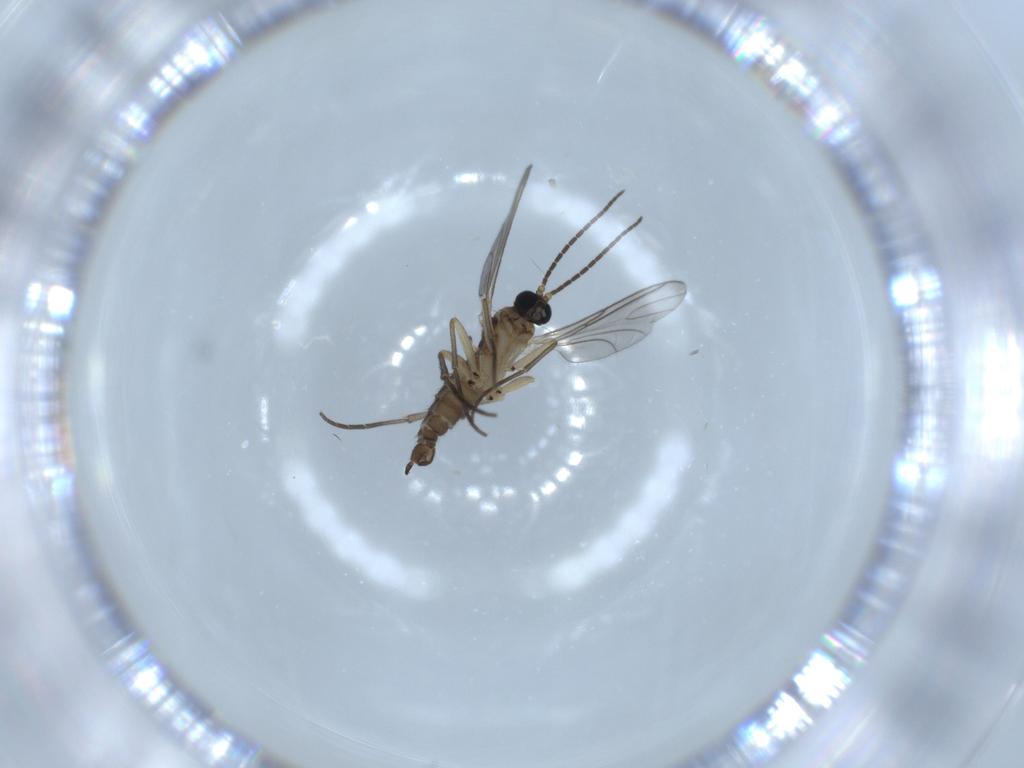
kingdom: Animalia
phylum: Arthropoda
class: Insecta
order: Diptera
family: Sciaridae
